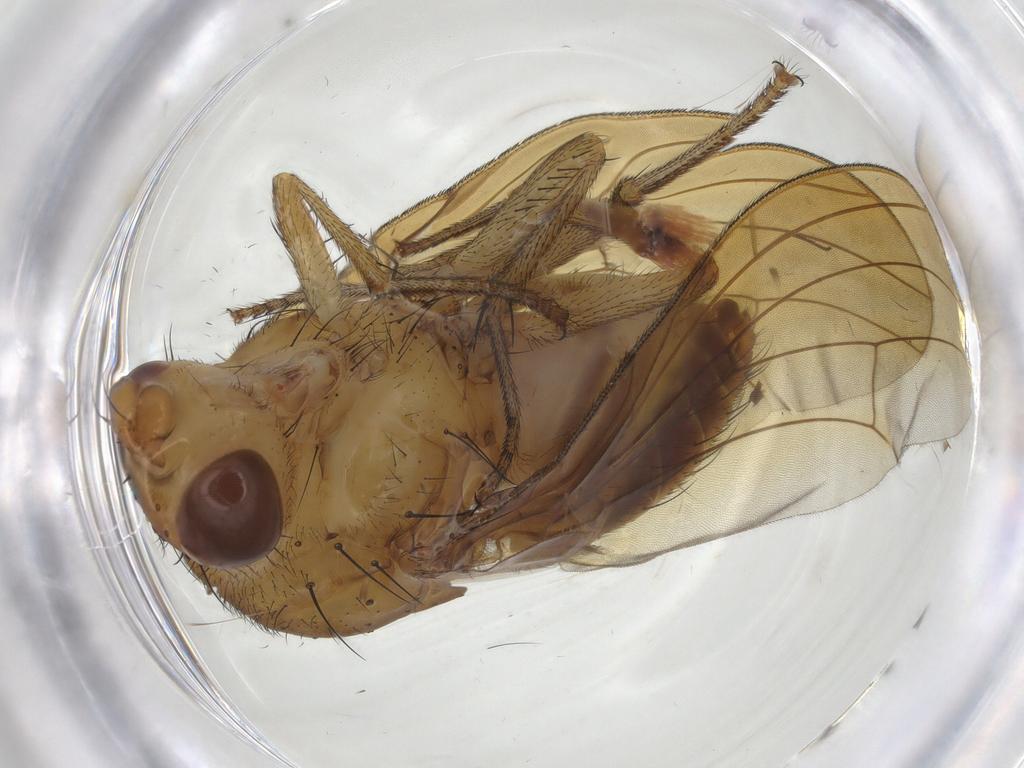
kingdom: Animalia
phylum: Arthropoda
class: Insecta
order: Diptera
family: Limoniidae
